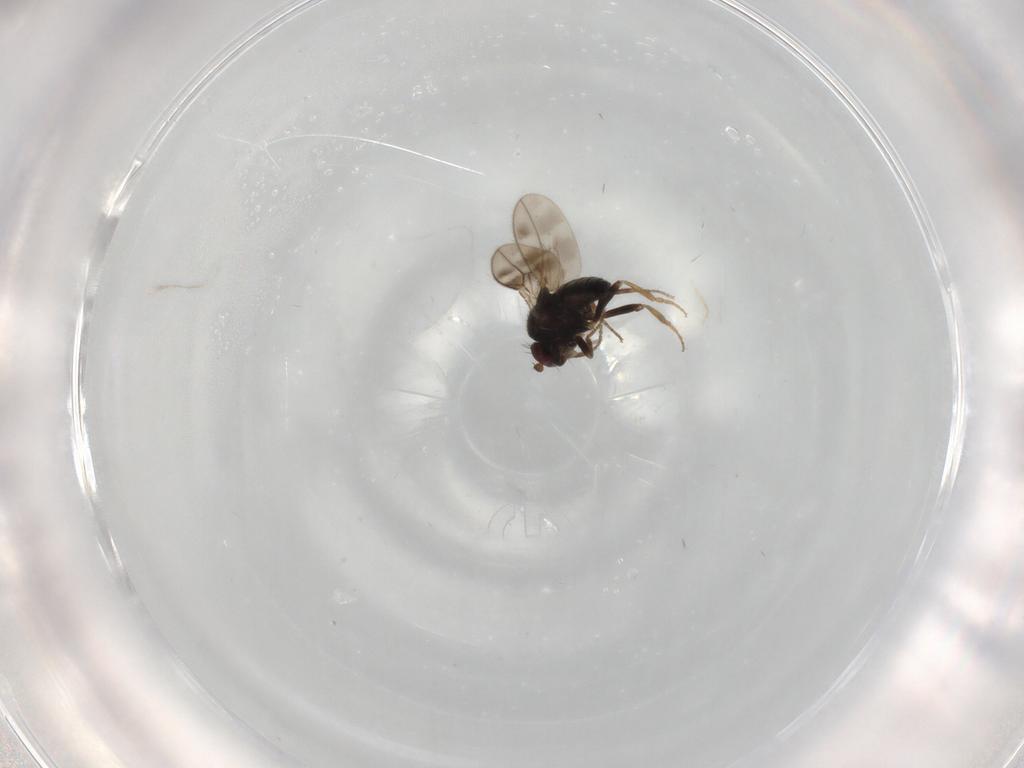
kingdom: Animalia
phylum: Arthropoda
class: Insecta
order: Diptera
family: Sphaeroceridae
